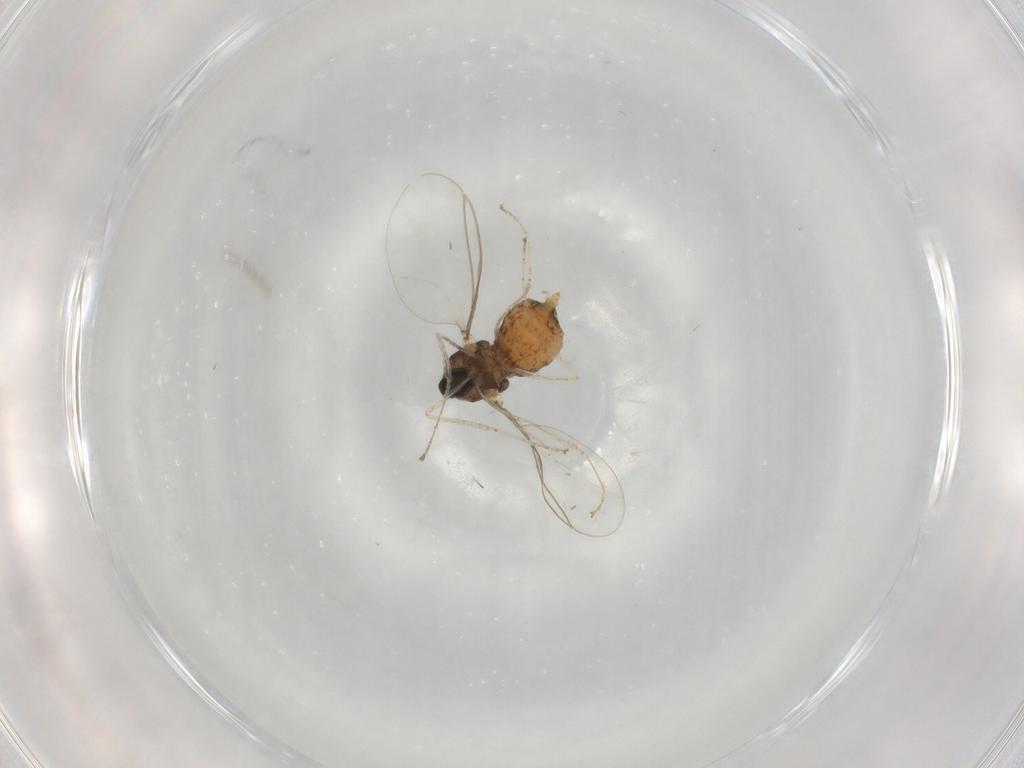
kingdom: Animalia
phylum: Arthropoda
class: Insecta
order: Diptera
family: Cecidomyiidae
